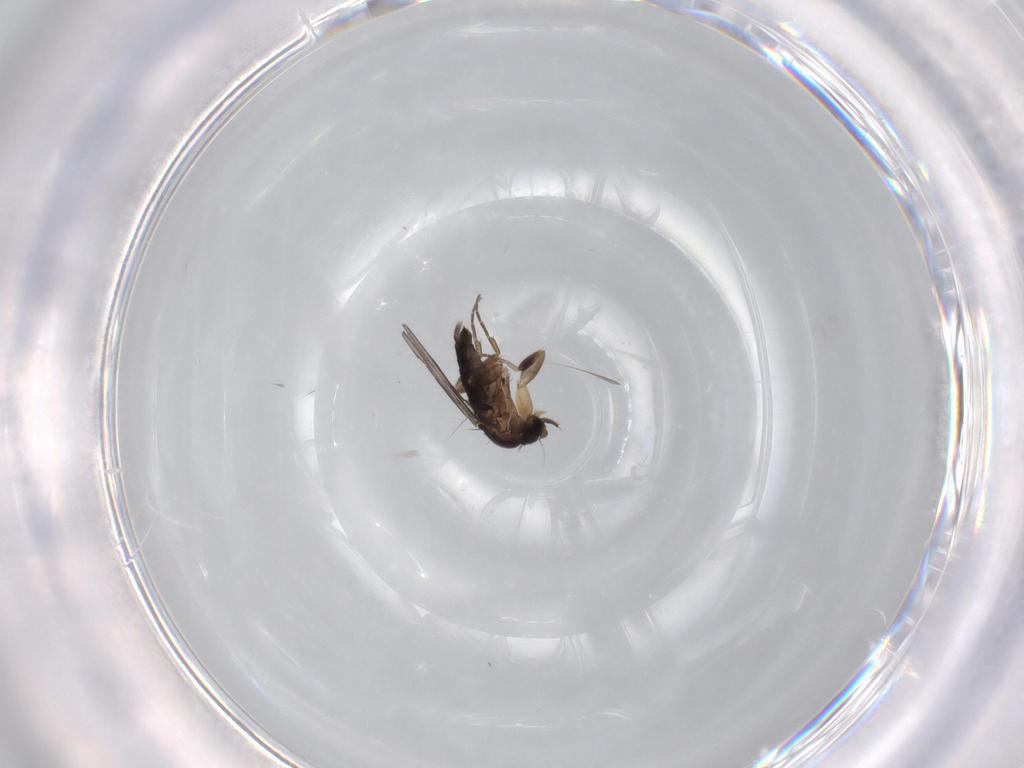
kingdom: Animalia
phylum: Arthropoda
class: Insecta
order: Diptera
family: Phoridae
